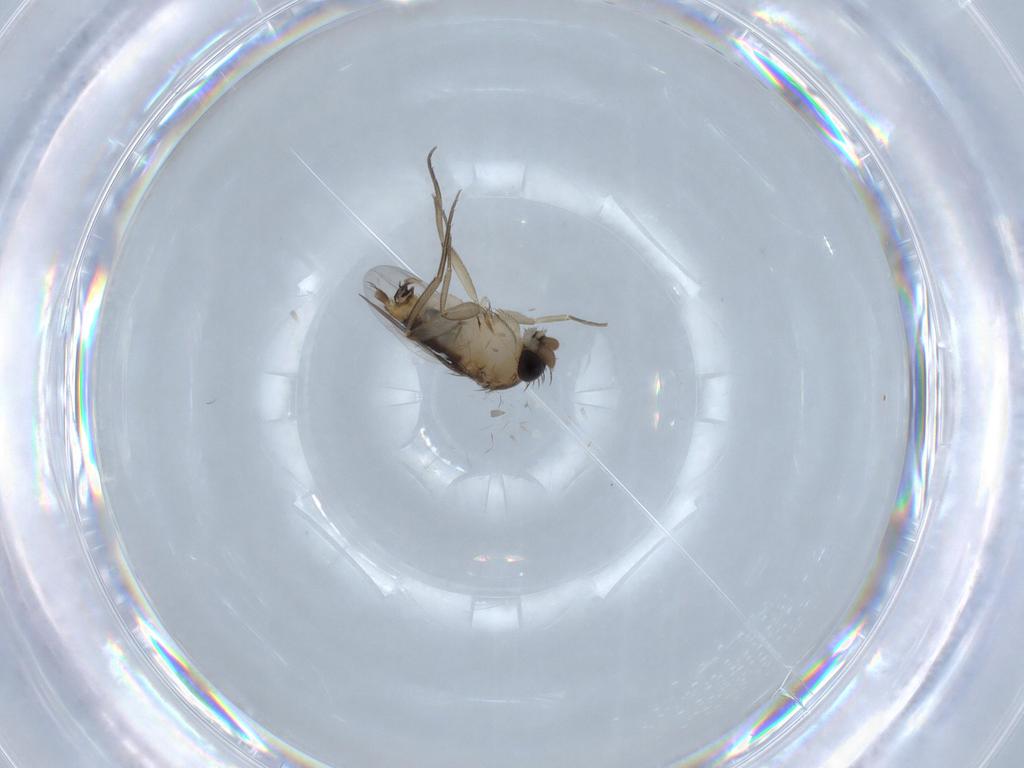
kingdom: Animalia
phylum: Arthropoda
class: Insecta
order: Diptera
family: Phoridae
